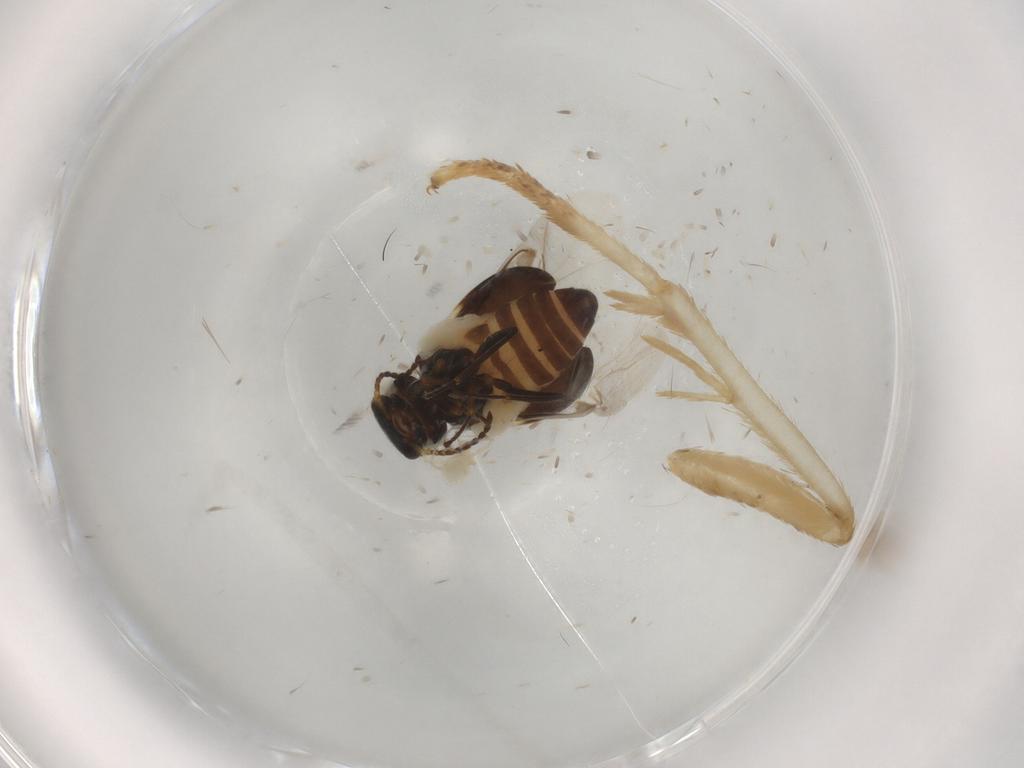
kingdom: Animalia
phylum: Arthropoda
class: Insecta
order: Coleoptera
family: Melyridae
